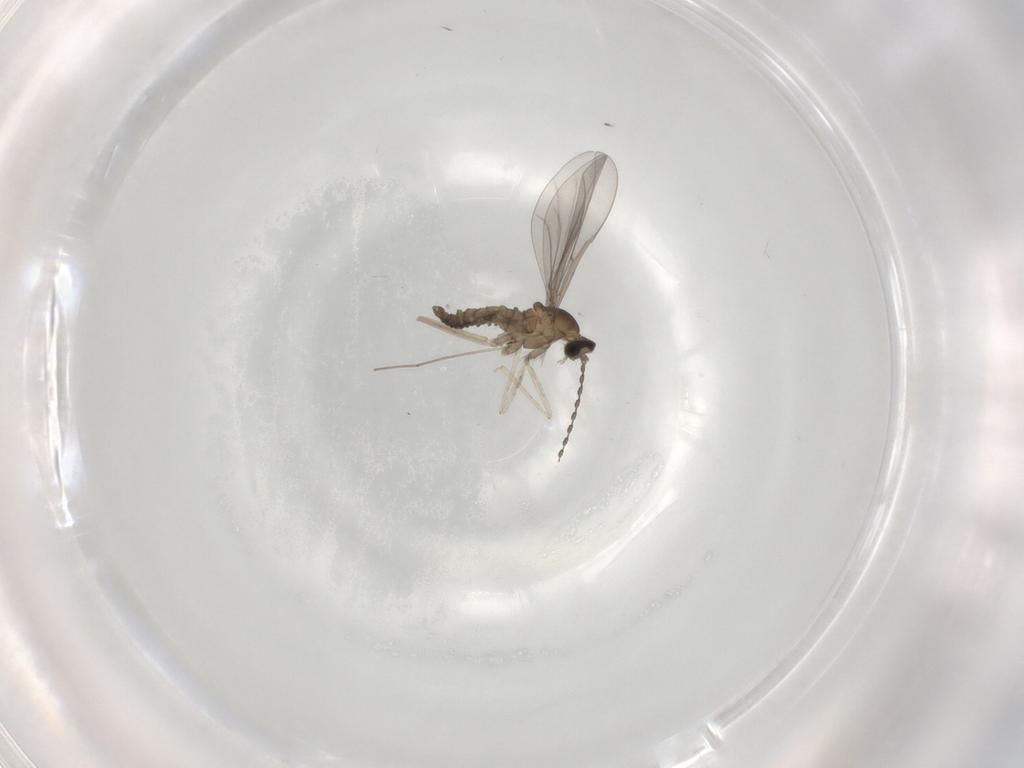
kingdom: Animalia
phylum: Arthropoda
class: Insecta
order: Diptera
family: Cecidomyiidae
